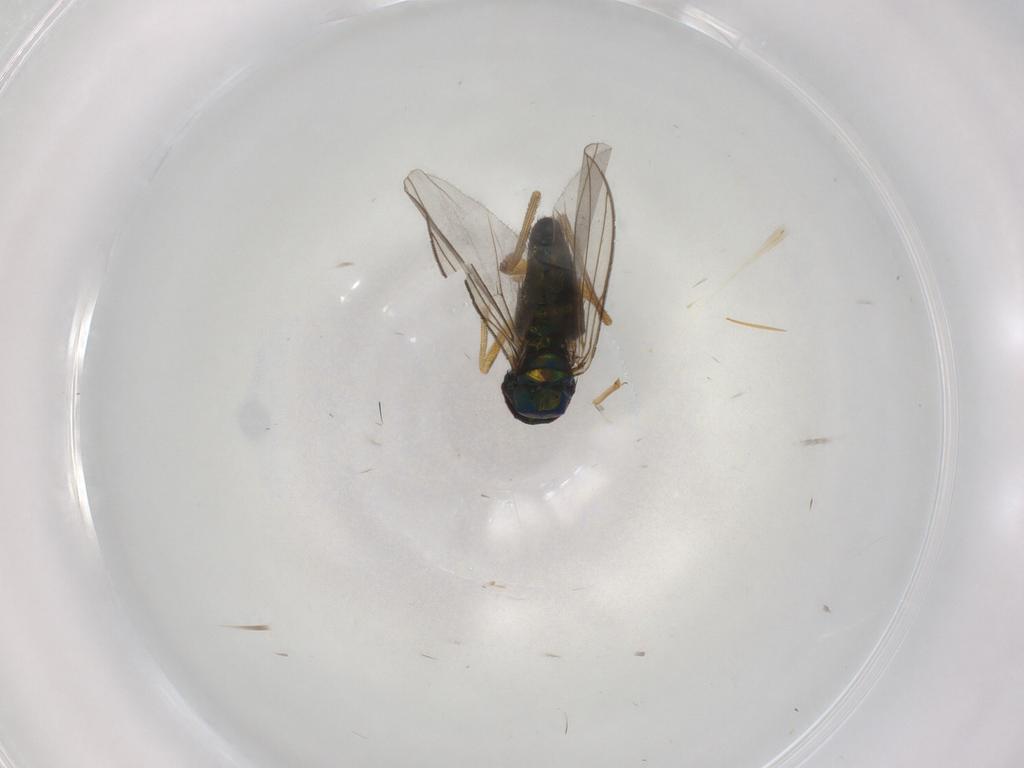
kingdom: Animalia
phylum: Arthropoda
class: Insecta
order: Diptera
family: Dolichopodidae
